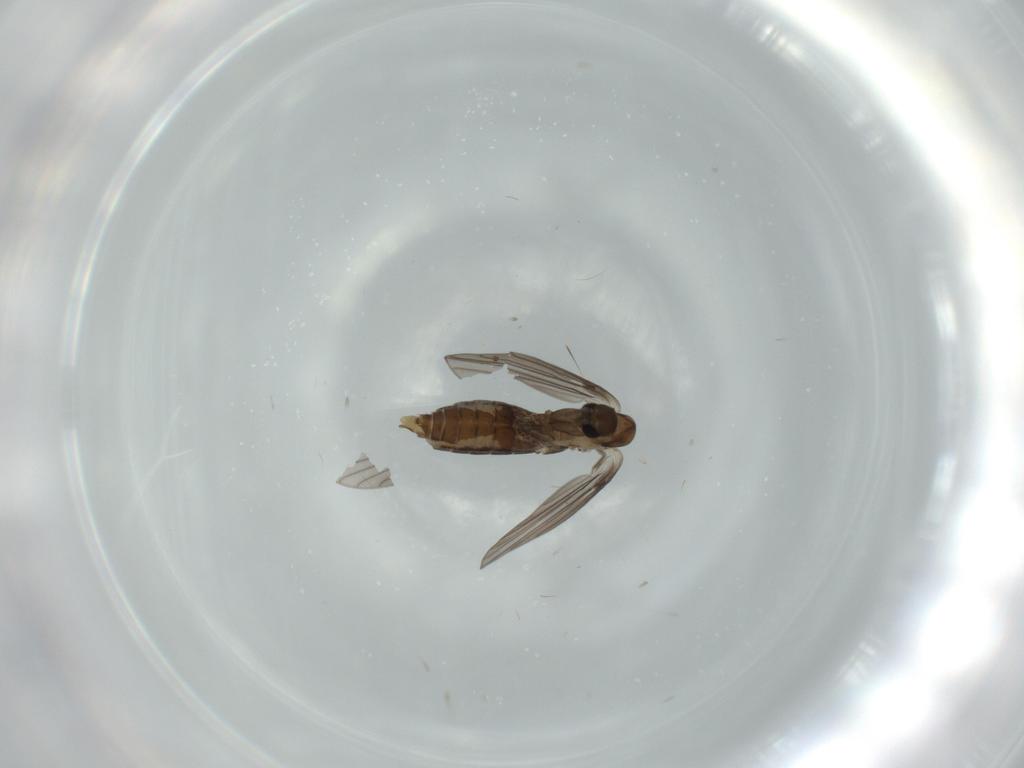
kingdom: Animalia
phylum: Arthropoda
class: Insecta
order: Diptera
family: Psychodidae
